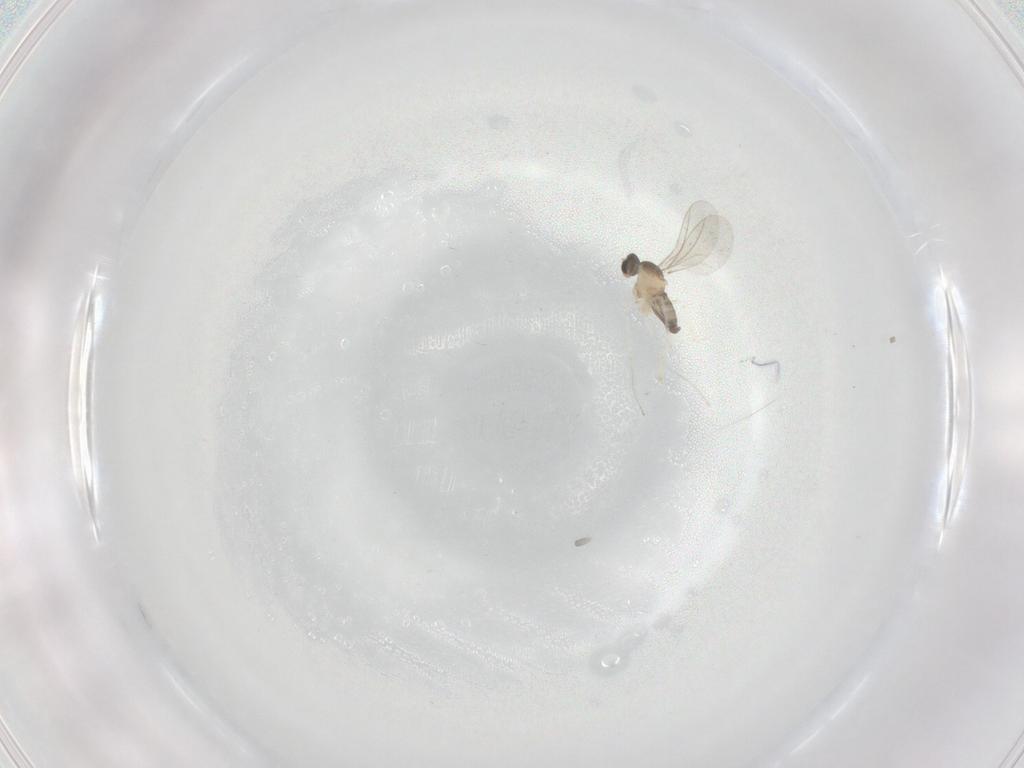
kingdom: Animalia
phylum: Arthropoda
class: Insecta
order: Diptera
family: Cecidomyiidae
